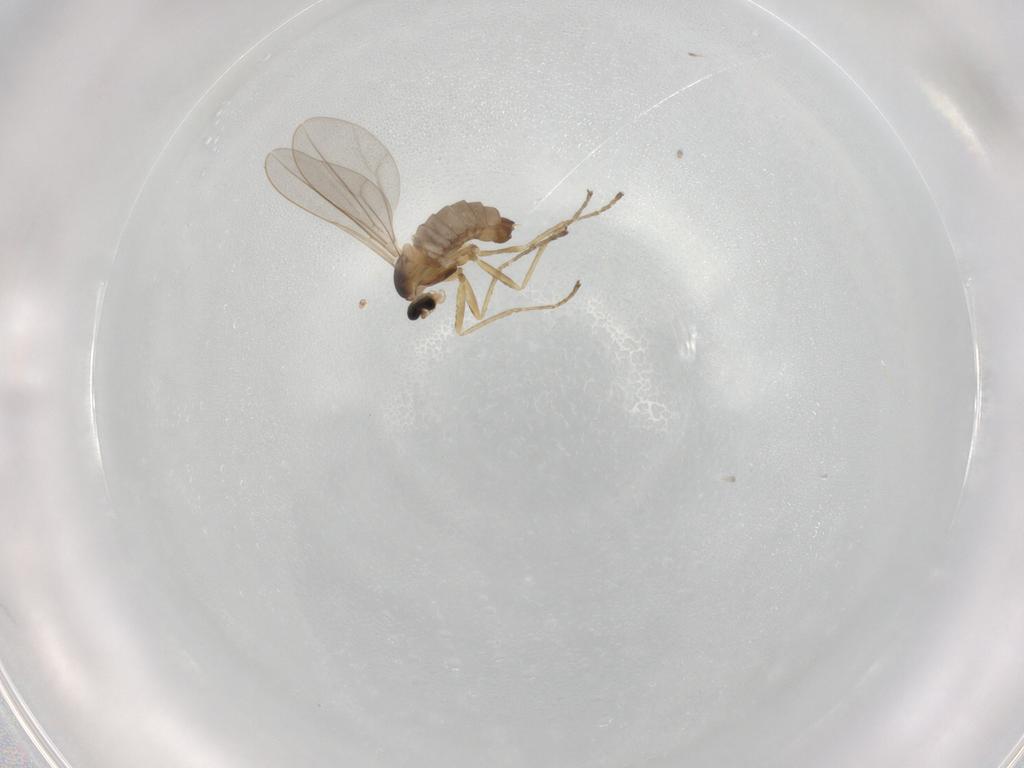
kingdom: Animalia
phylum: Arthropoda
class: Insecta
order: Diptera
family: Cecidomyiidae
